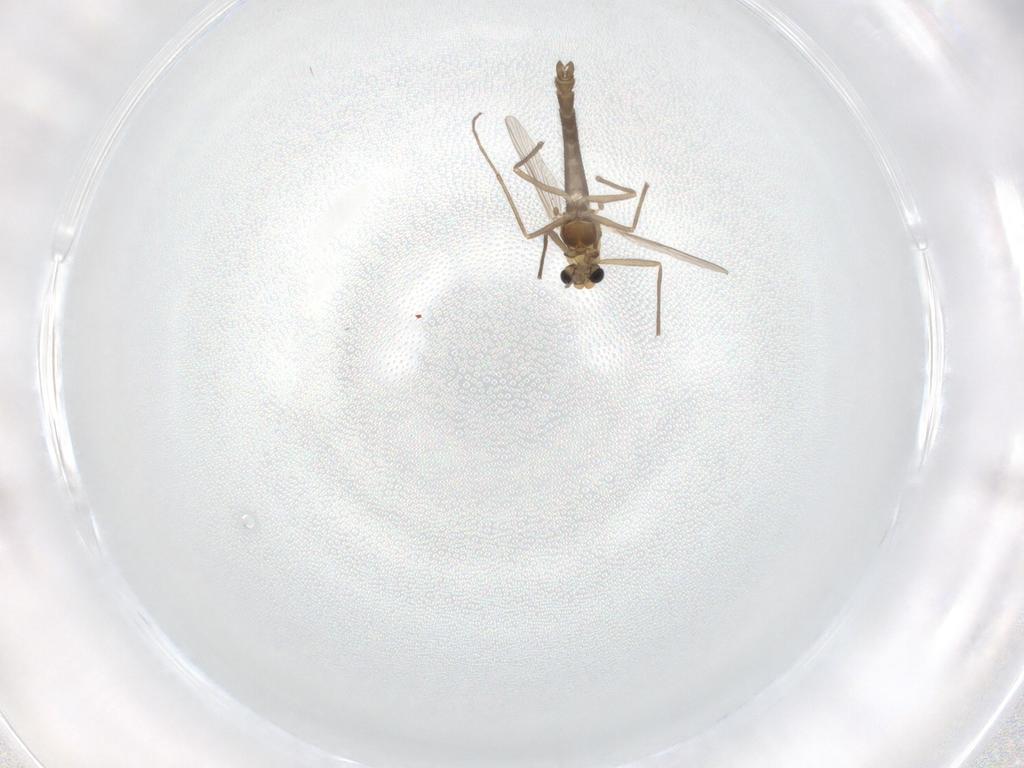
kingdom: Animalia
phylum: Arthropoda
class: Insecta
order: Diptera
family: Chironomidae
